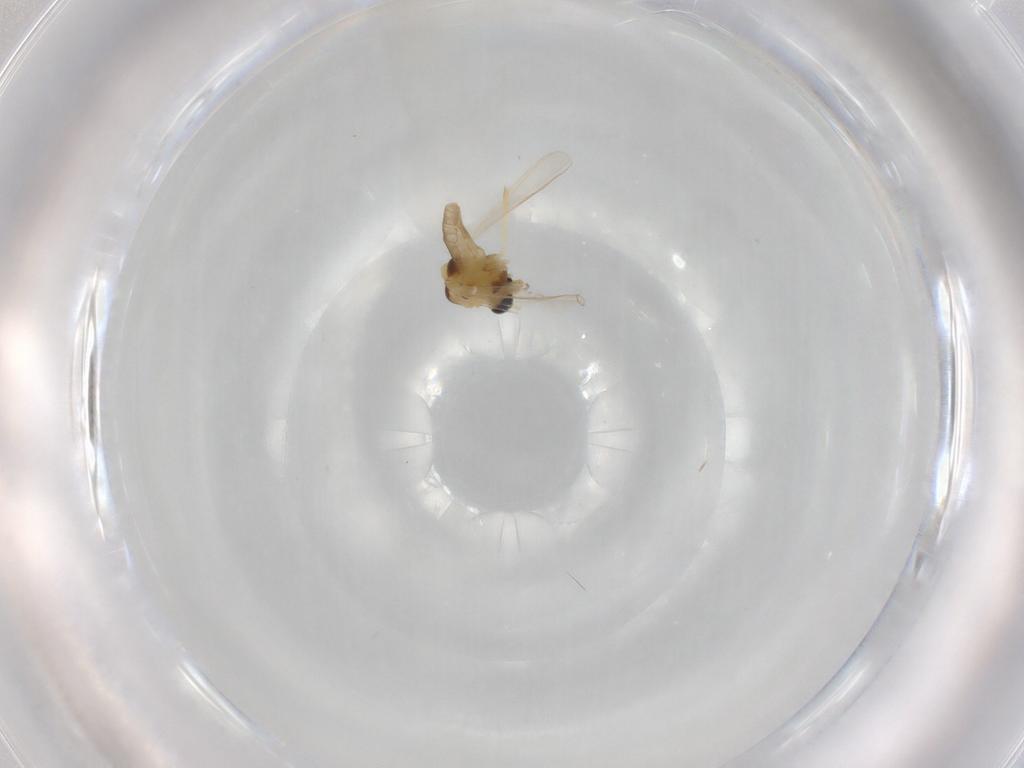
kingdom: Animalia
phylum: Arthropoda
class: Insecta
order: Diptera
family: Chironomidae
